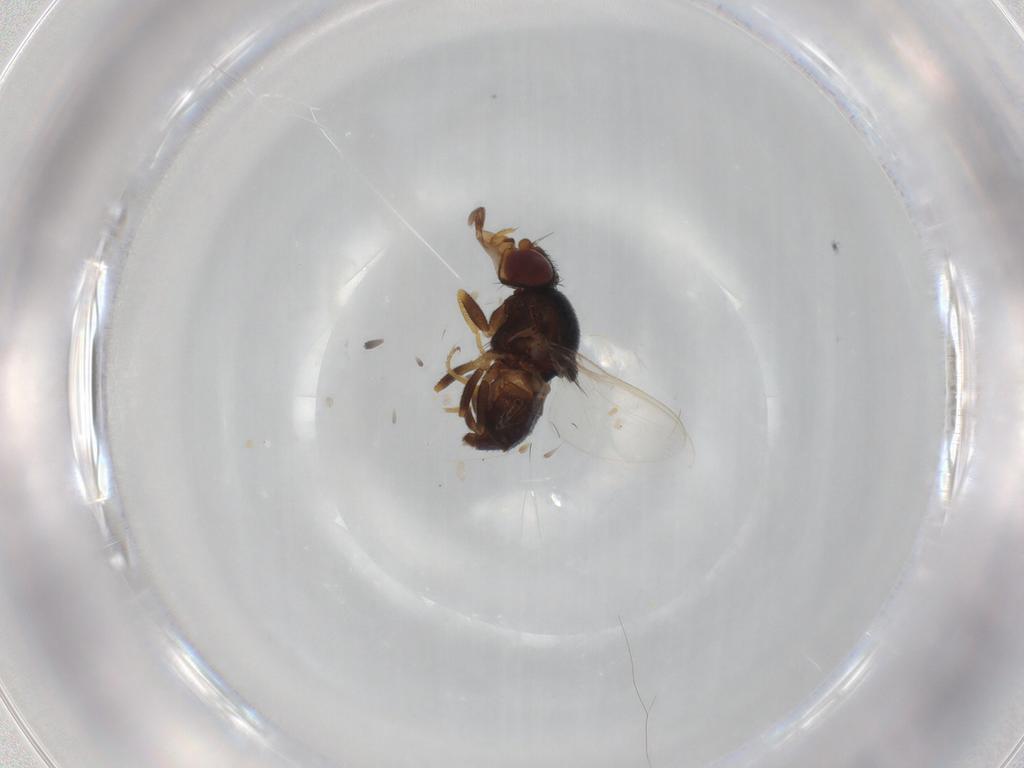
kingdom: Animalia
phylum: Arthropoda
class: Insecta
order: Diptera
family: Chloropidae
